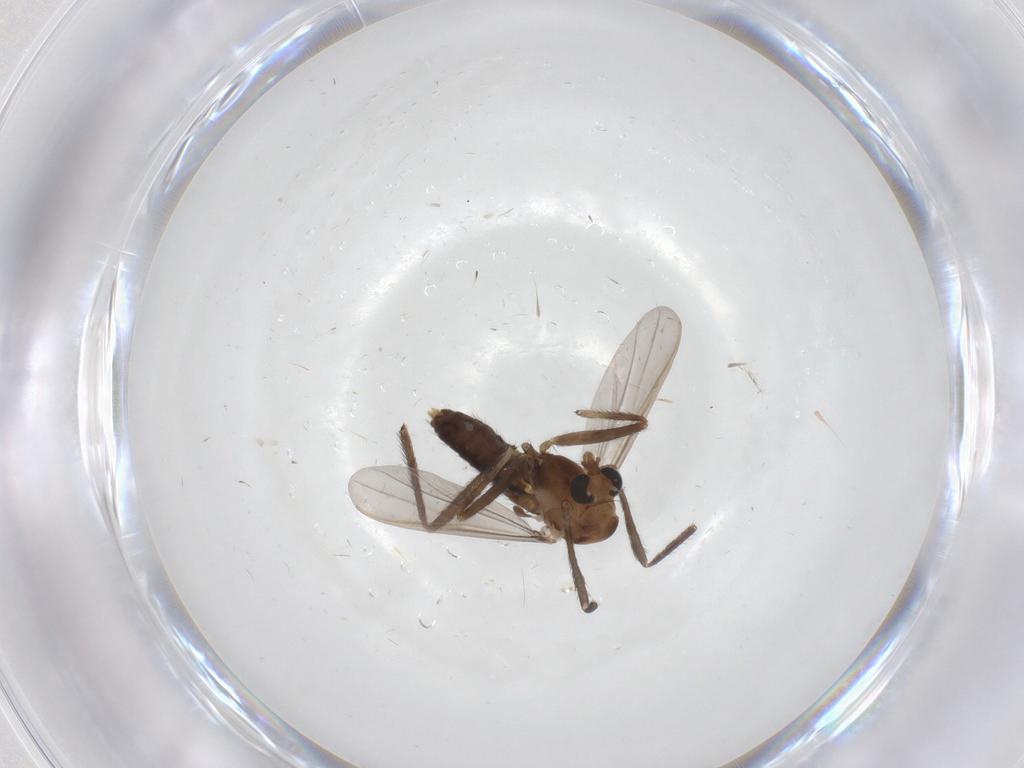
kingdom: Animalia
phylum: Arthropoda
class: Insecta
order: Diptera
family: Chironomidae
